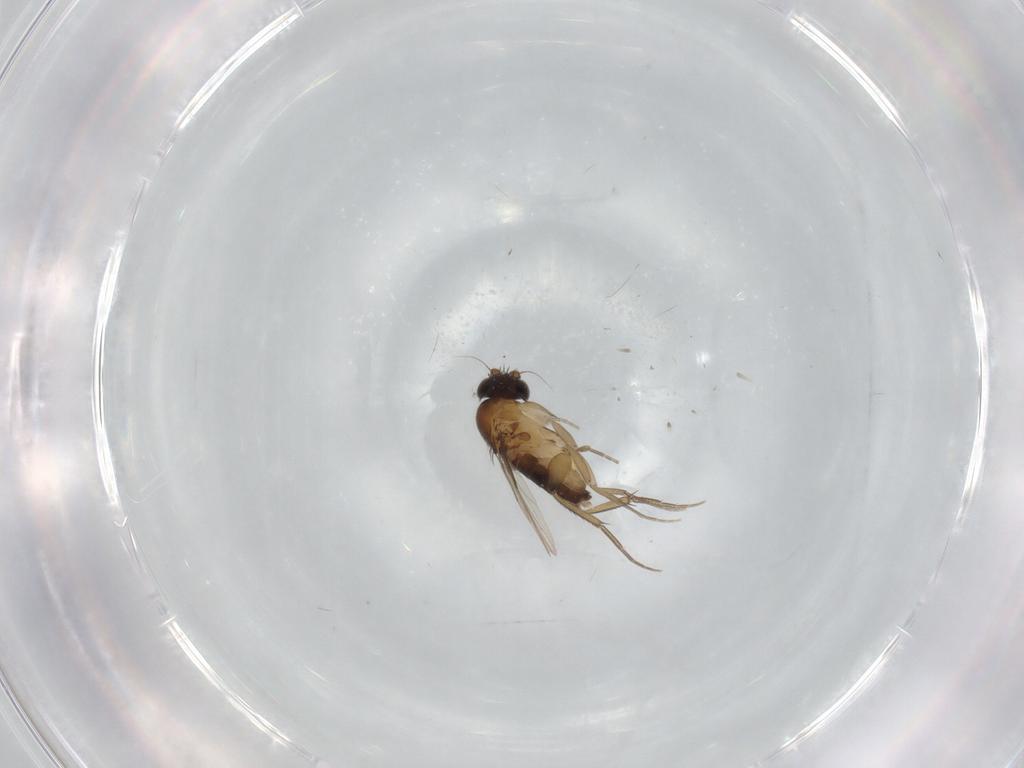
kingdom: Animalia
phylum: Arthropoda
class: Insecta
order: Diptera
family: Phoridae
